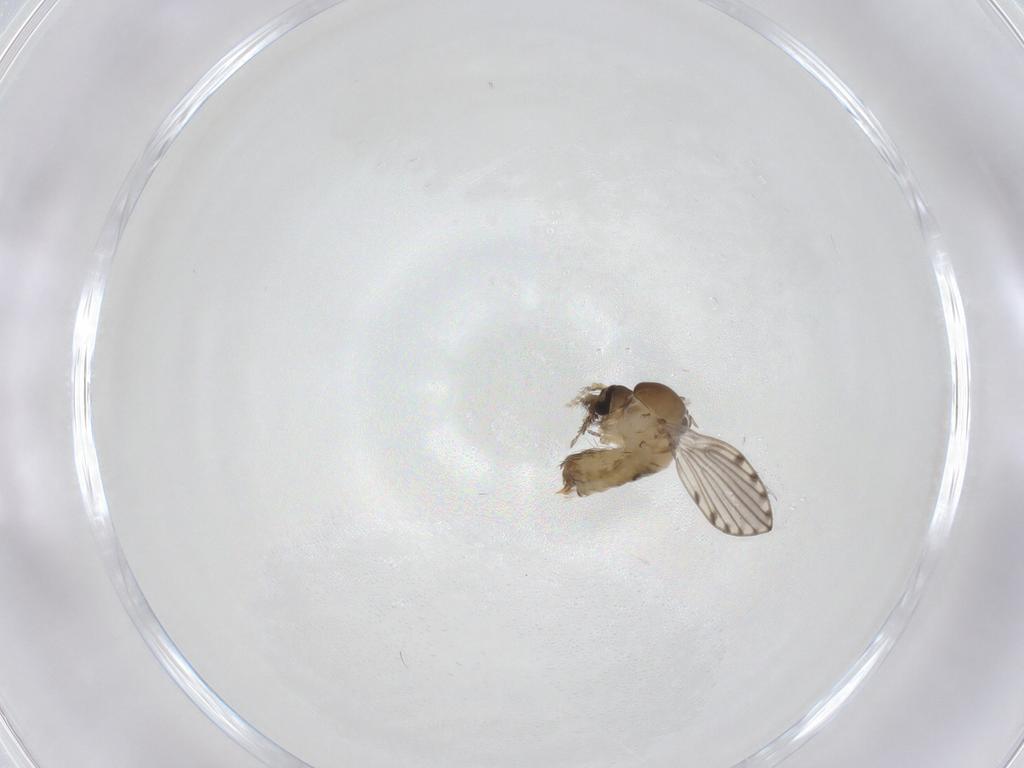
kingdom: Animalia
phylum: Arthropoda
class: Insecta
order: Diptera
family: Psychodidae
